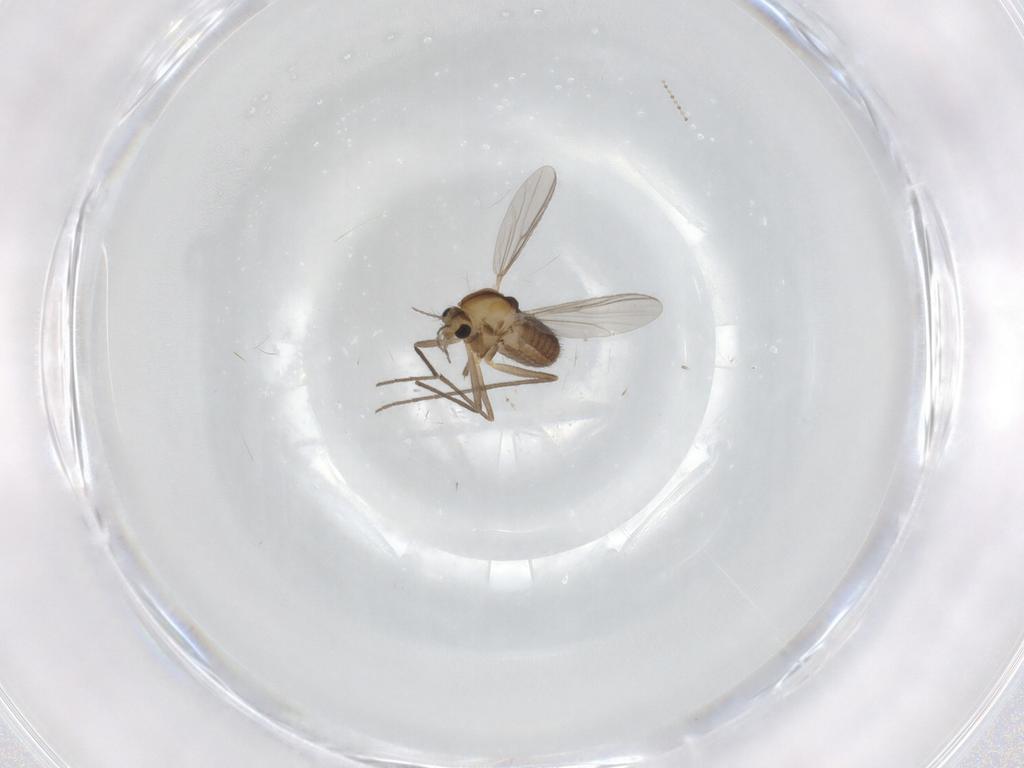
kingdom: Animalia
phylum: Arthropoda
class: Insecta
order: Diptera
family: Chironomidae
